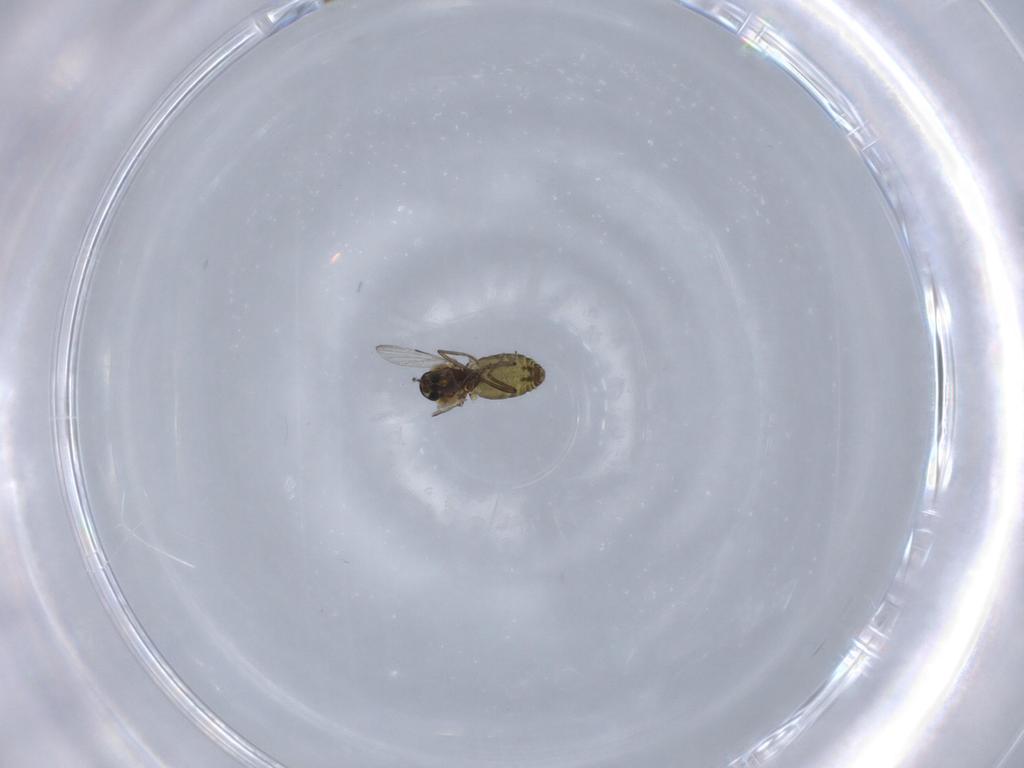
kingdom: Animalia
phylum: Arthropoda
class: Insecta
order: Diptera
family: Ceratopogonidae
